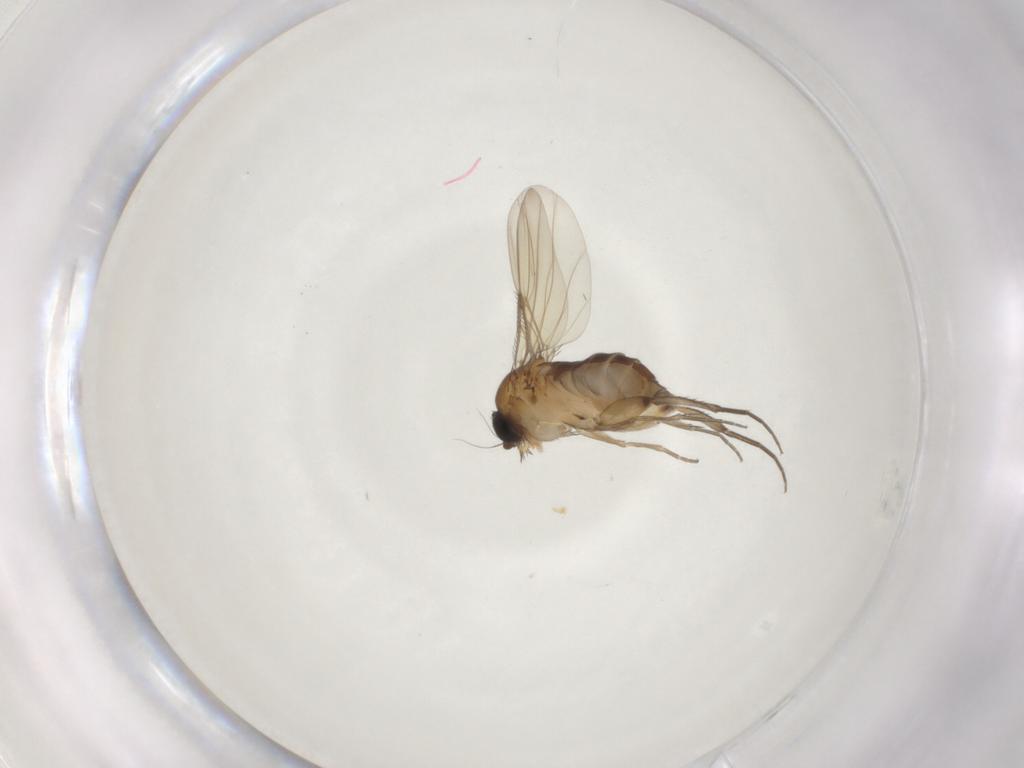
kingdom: Animalia
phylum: Arthropoda
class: Insecta
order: Diptera
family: Phoridae
